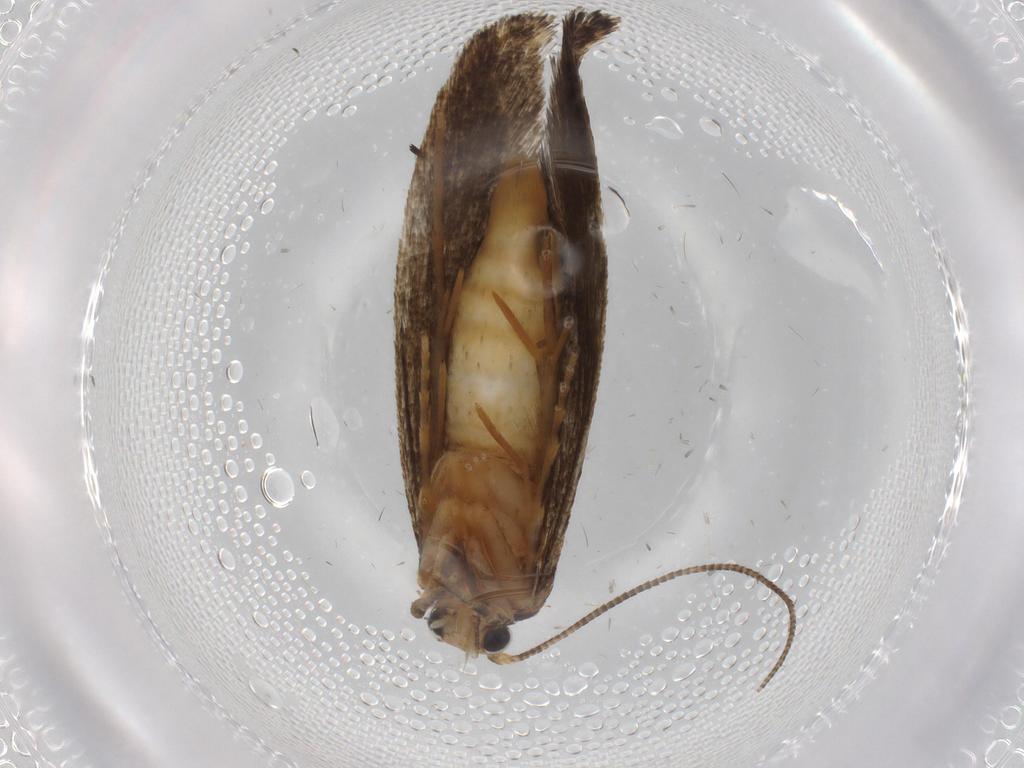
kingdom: Animalia
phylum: Arthropoda
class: Insecta
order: Lepidoptera
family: Tineidae
